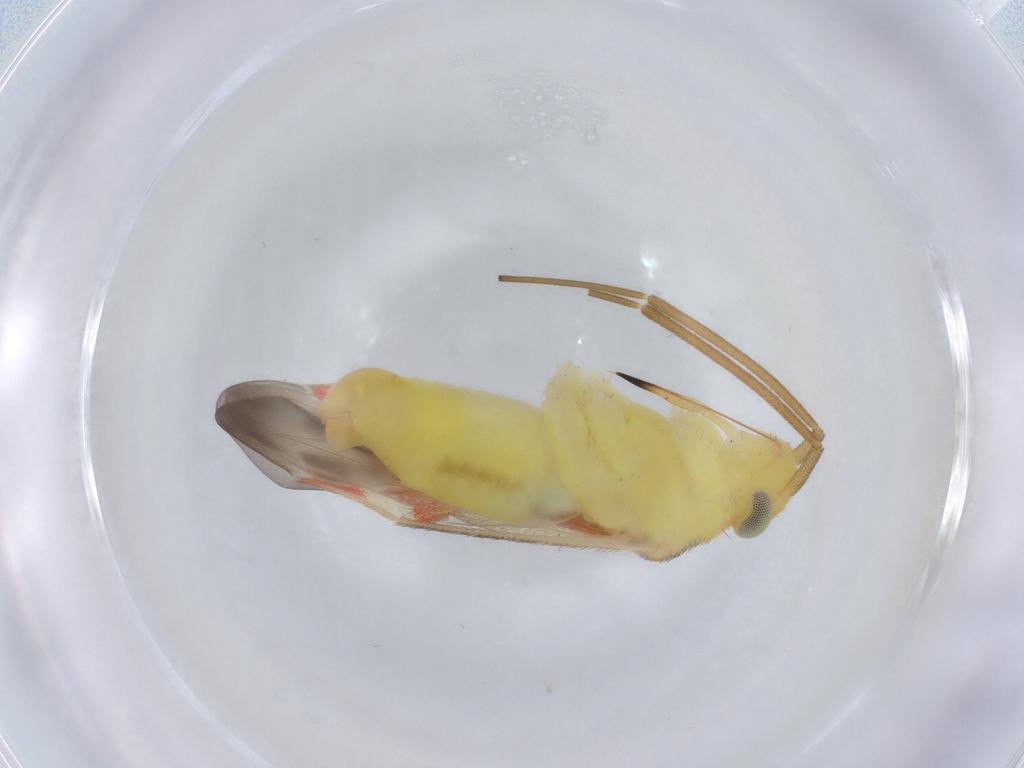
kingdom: Animalia
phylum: Arthropoda
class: Insecta
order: Hemiptera
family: Miridae
